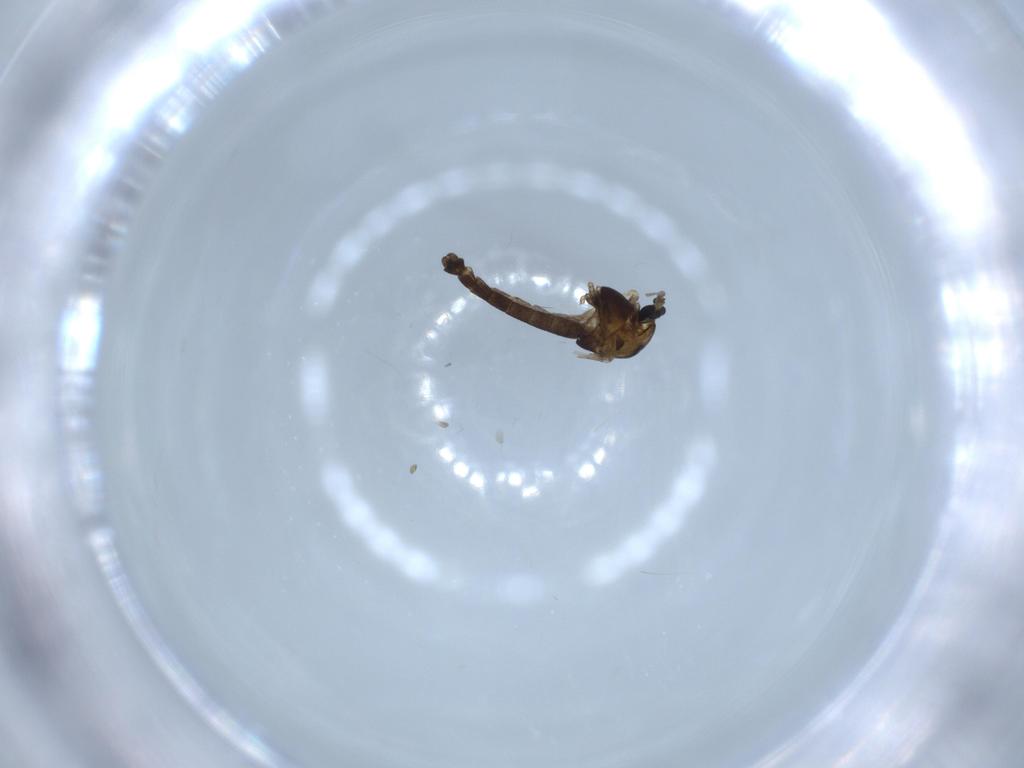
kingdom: Animalia
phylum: Arthropoda
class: Insecta
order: Diptera
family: Chironomidae
